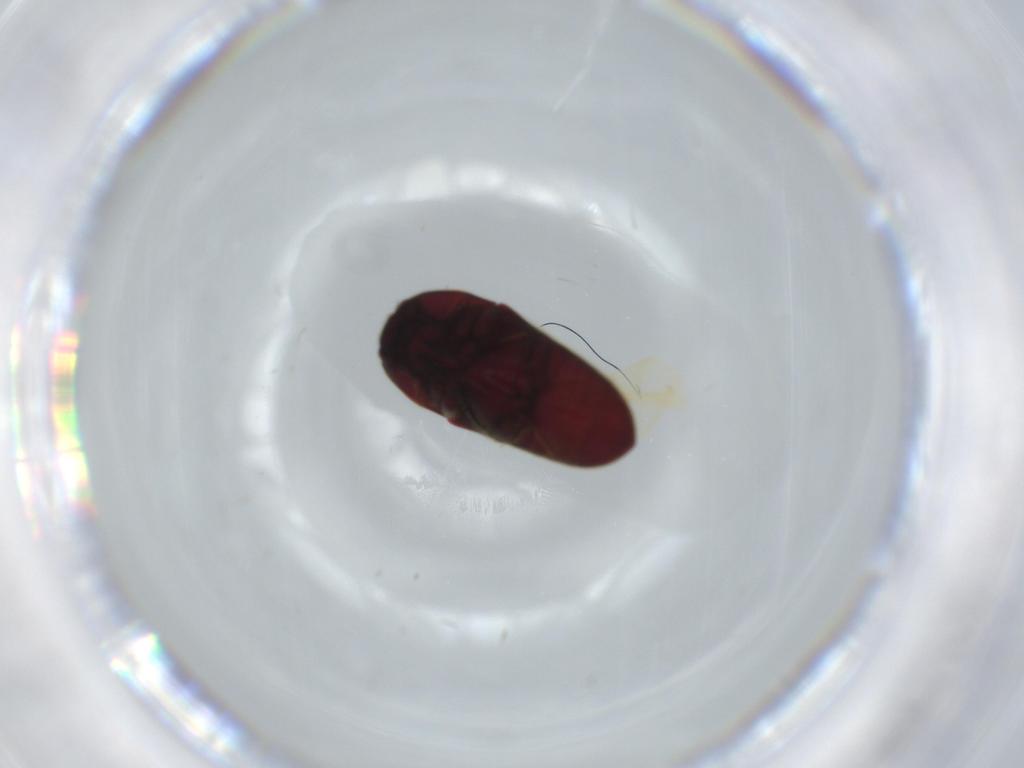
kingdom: Animalia
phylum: Arthropoda
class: Insecta
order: Coleoptera
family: Throscidae
